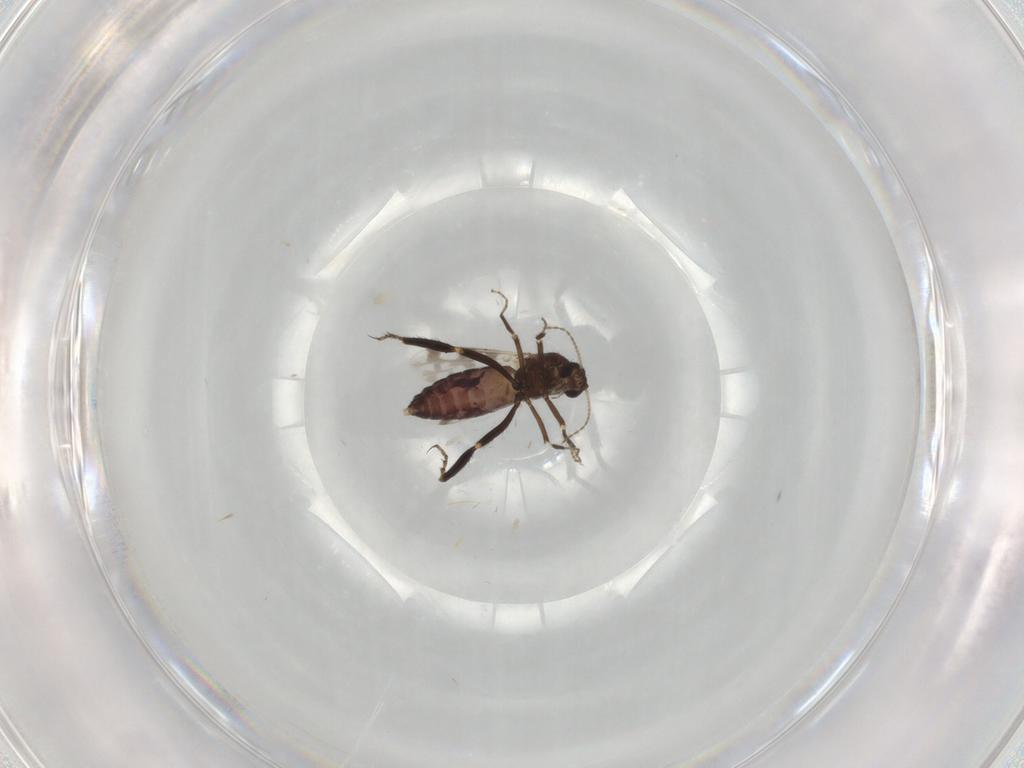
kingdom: Animalia
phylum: Arthropoda
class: Insecta
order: Diptera
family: Ceratopogonidae
